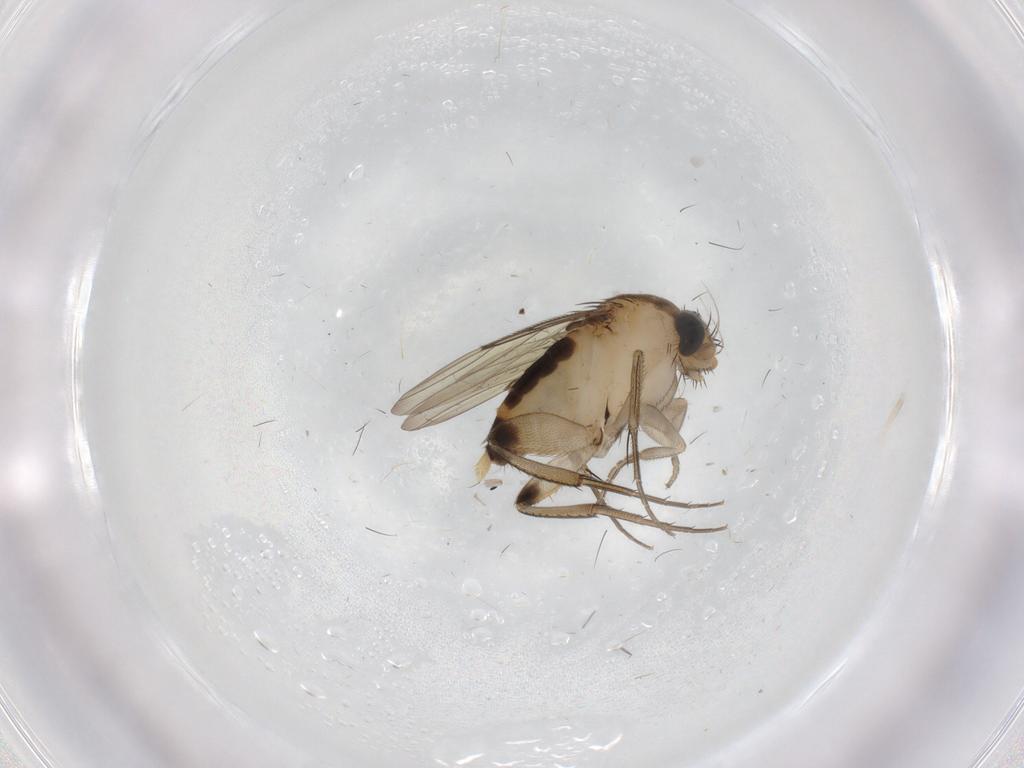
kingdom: Animalia
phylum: Arthropoda
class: Insecta
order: Diptera
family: Phoridae
